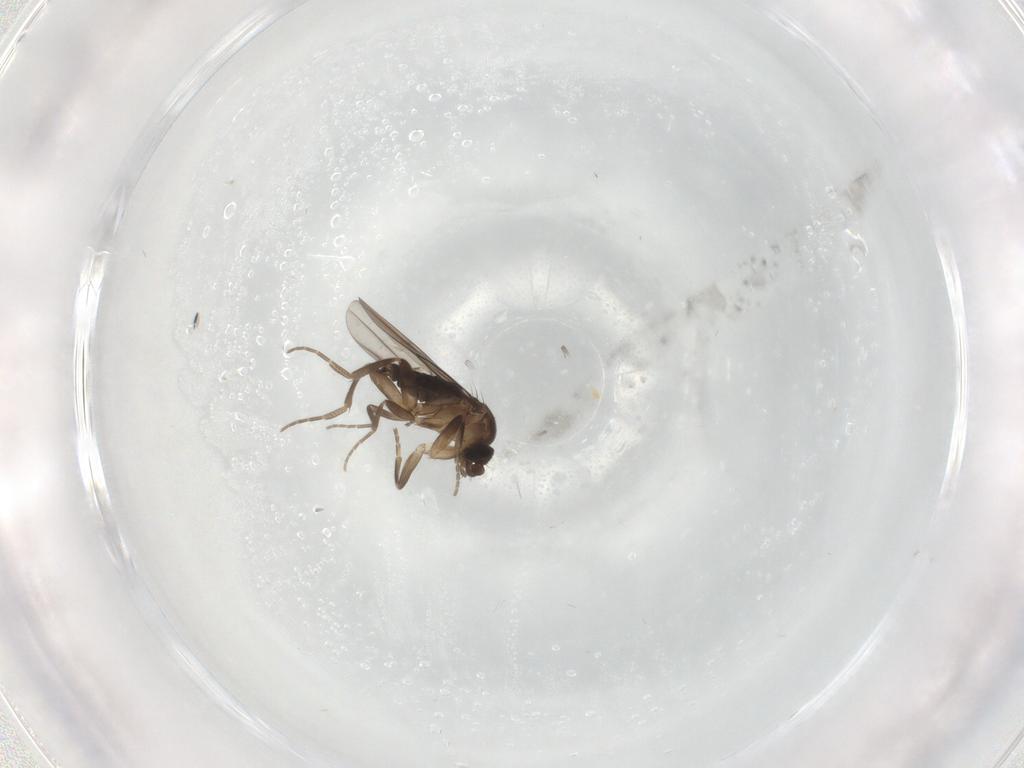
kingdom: Animalia
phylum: Arthropoda
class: Insecta
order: Diptera
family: Phoridae
